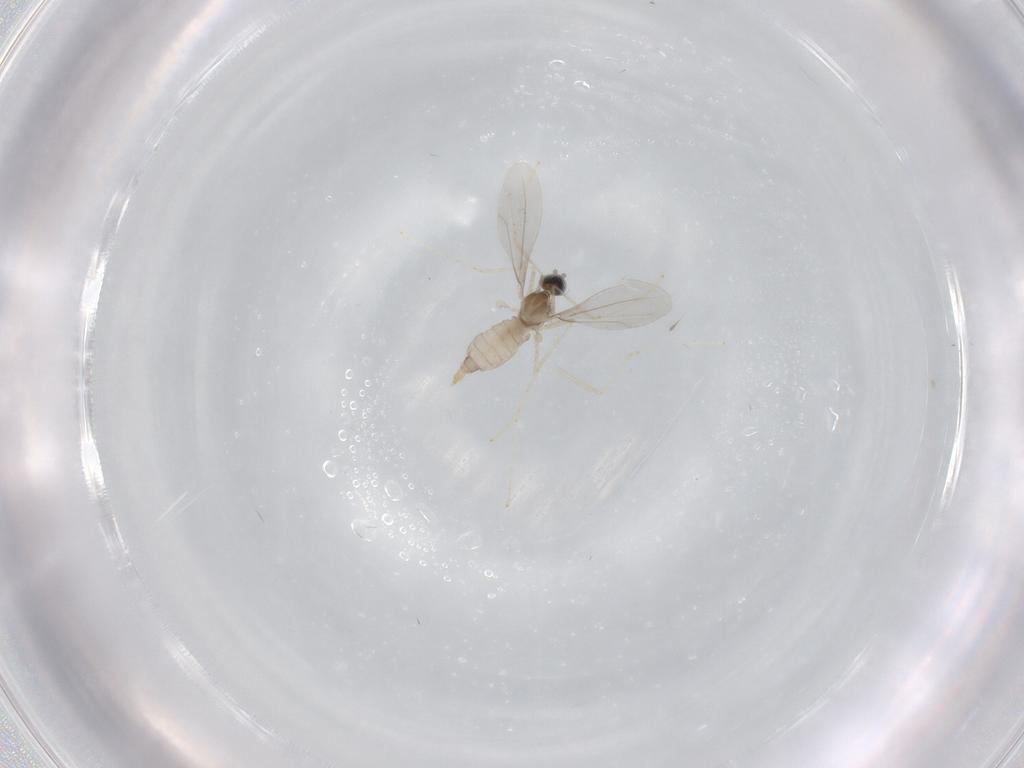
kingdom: Animalia
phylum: Arthropoda
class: Insecta
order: Diptera
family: Cecidomyiidae
